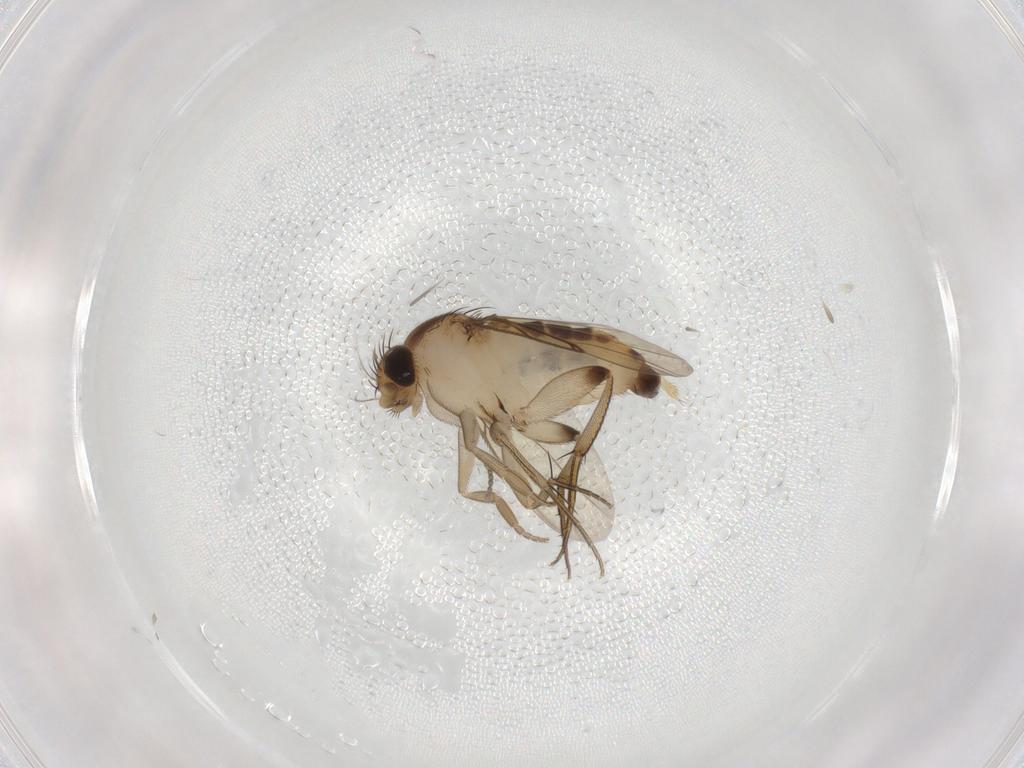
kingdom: Animalia
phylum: Arthropoda
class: Insecta
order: Diptera
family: Phoridae
